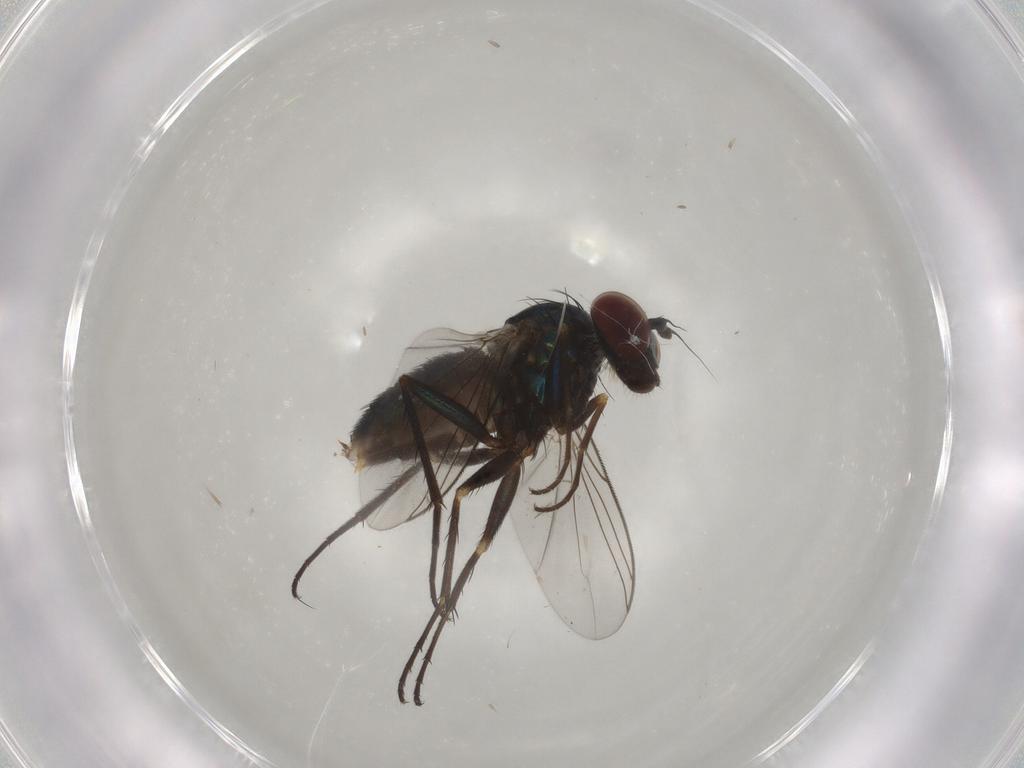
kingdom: Animalia
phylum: Arthropoda
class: Insecta
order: Diptera
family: Dolichopodidae
